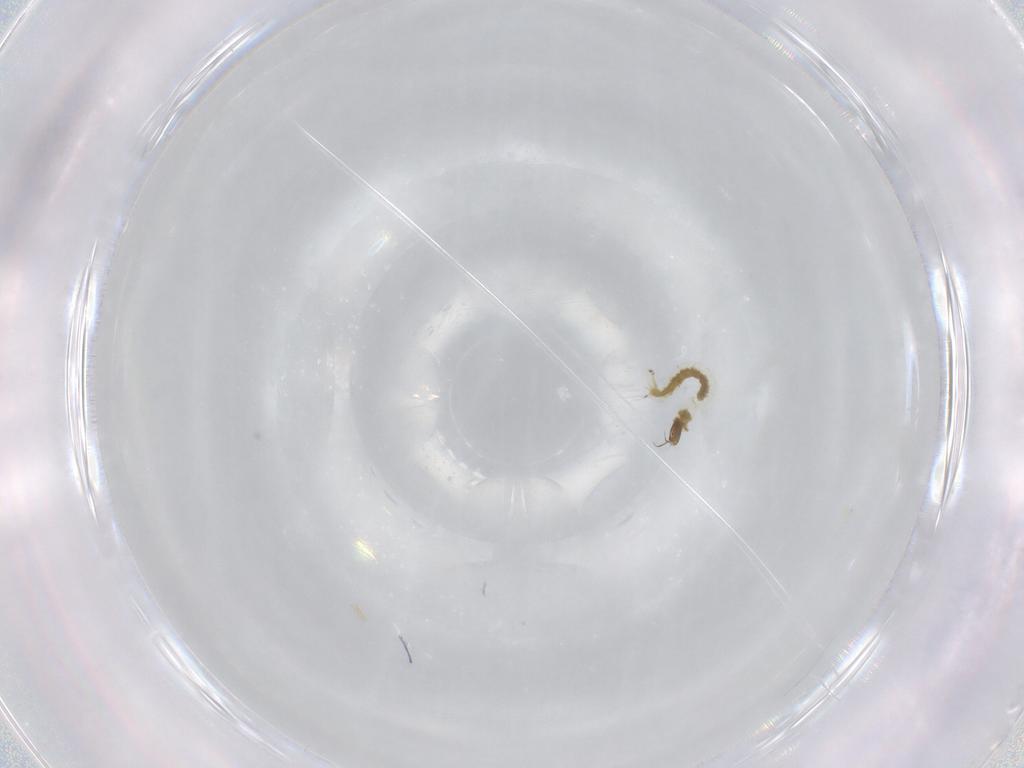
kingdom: Animalia
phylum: Arthropoda
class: Insecta
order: Diptera
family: Chironomidae
